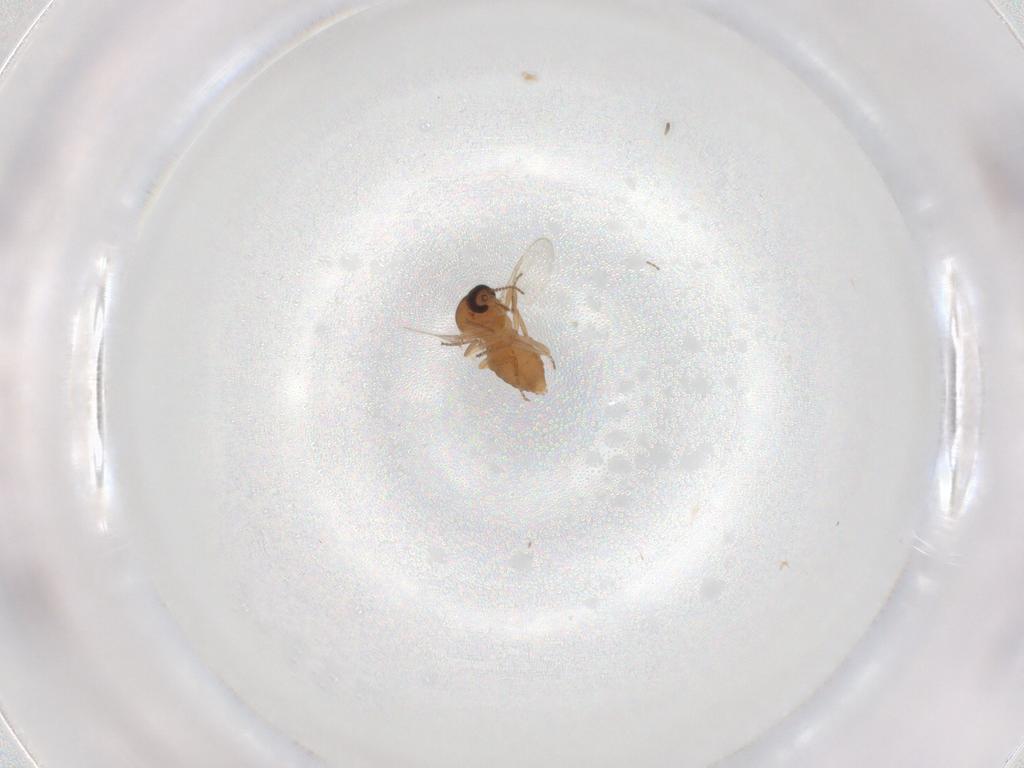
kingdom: Animalia
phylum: Arthropoda
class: Insecta
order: Diptera
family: Ceratopogonidae
